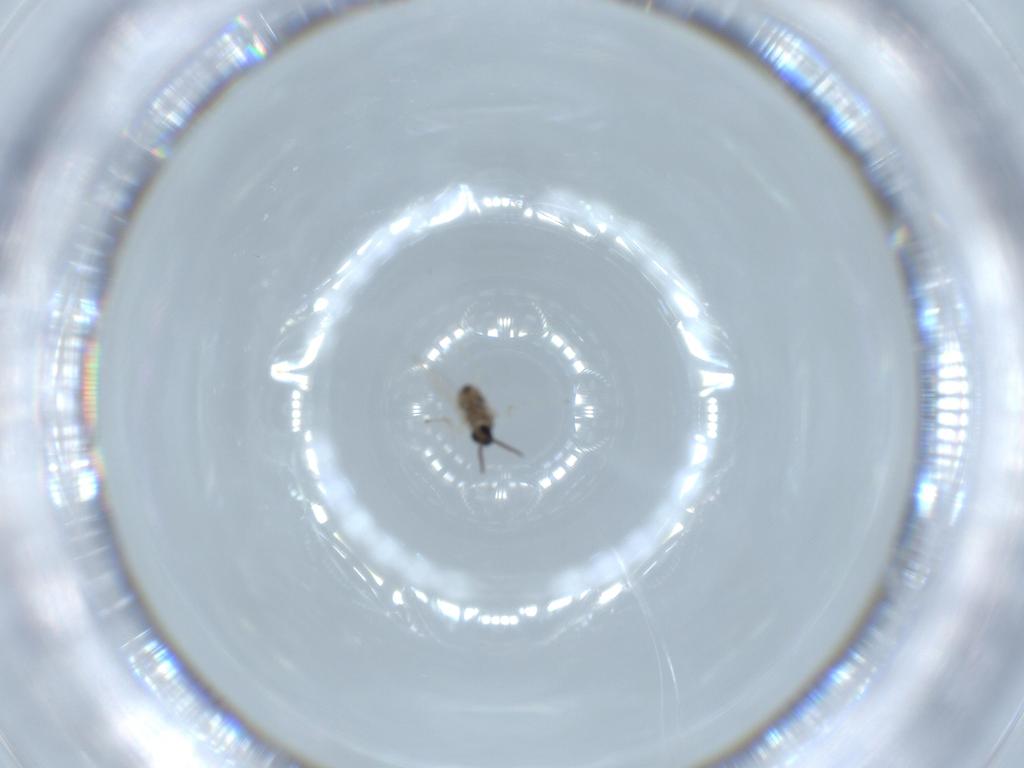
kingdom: Animalia
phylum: Arthropoda
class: Insecta
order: Diptera
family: Cecidomyiidae
